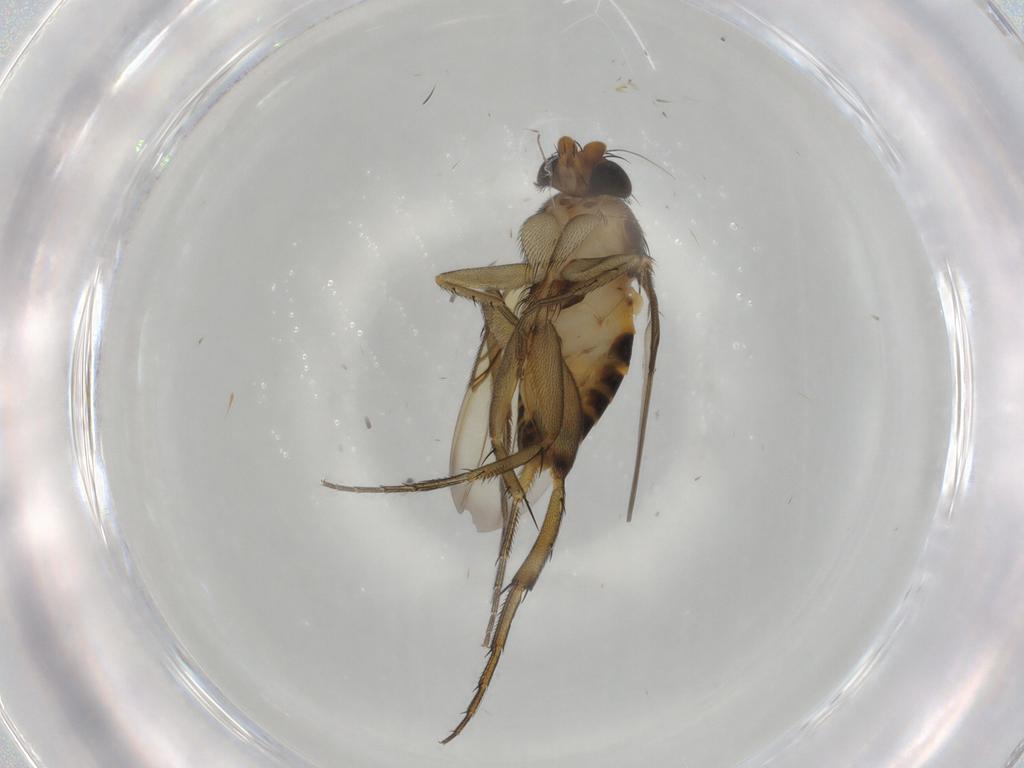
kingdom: Animalia
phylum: Arthropoda
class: Insecta
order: Diptera
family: Phoridae
